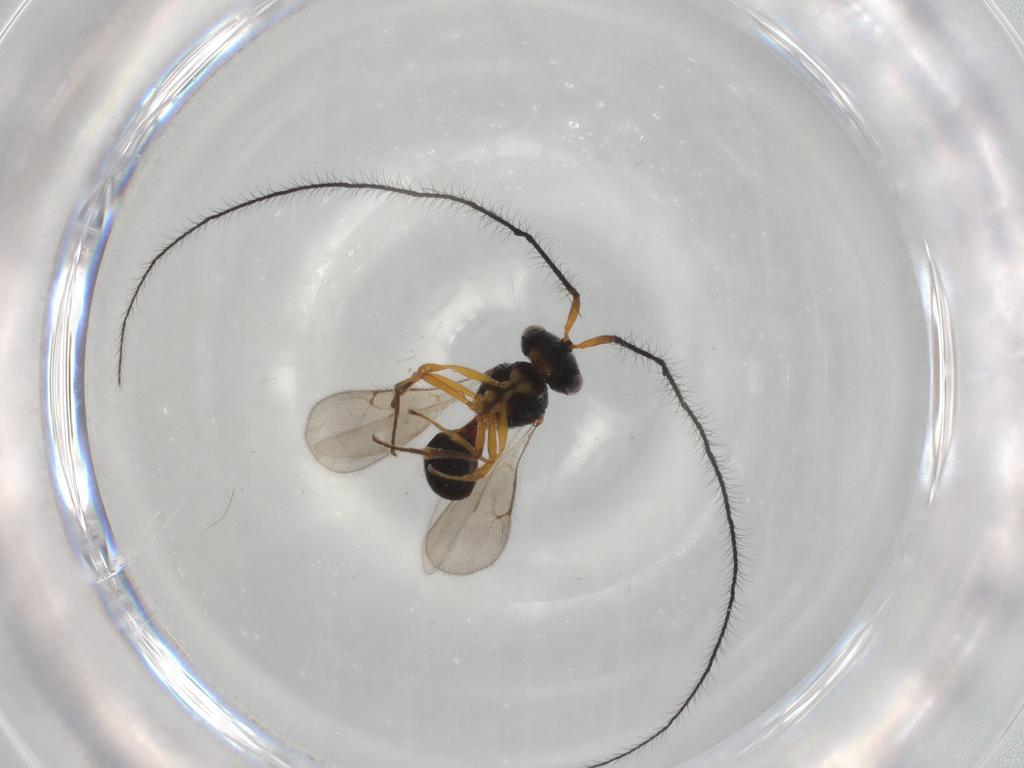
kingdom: Animalia
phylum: Arthropoda
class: Insecta
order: Hymenoptera
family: Scelionidae
